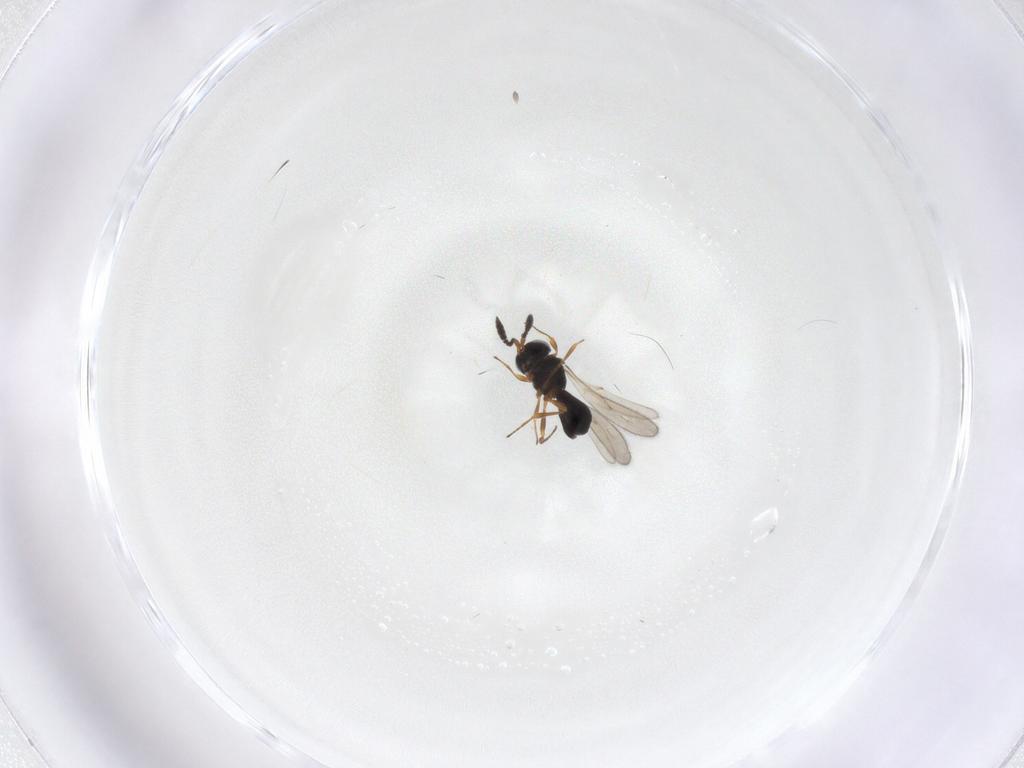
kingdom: Animalia
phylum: Arthropoda
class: Insecta
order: Hymenoptera
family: Scelionidae
